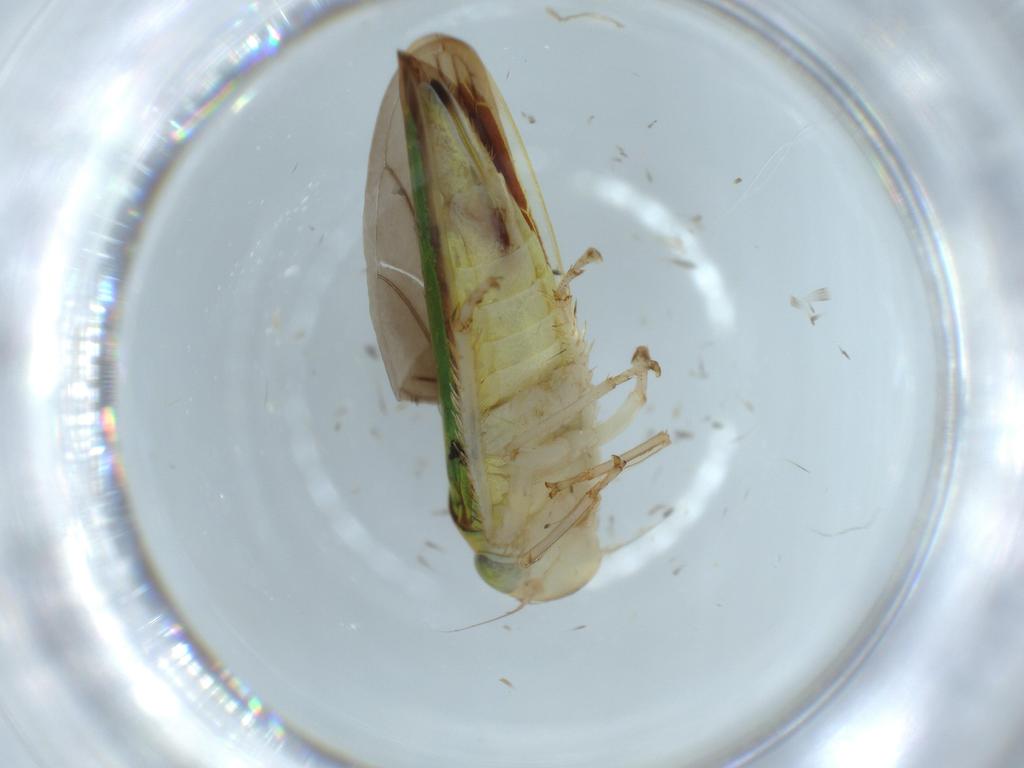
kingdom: Animalia
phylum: Arthropoda
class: Insecta
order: Hemiptera
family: Cicadellidae
